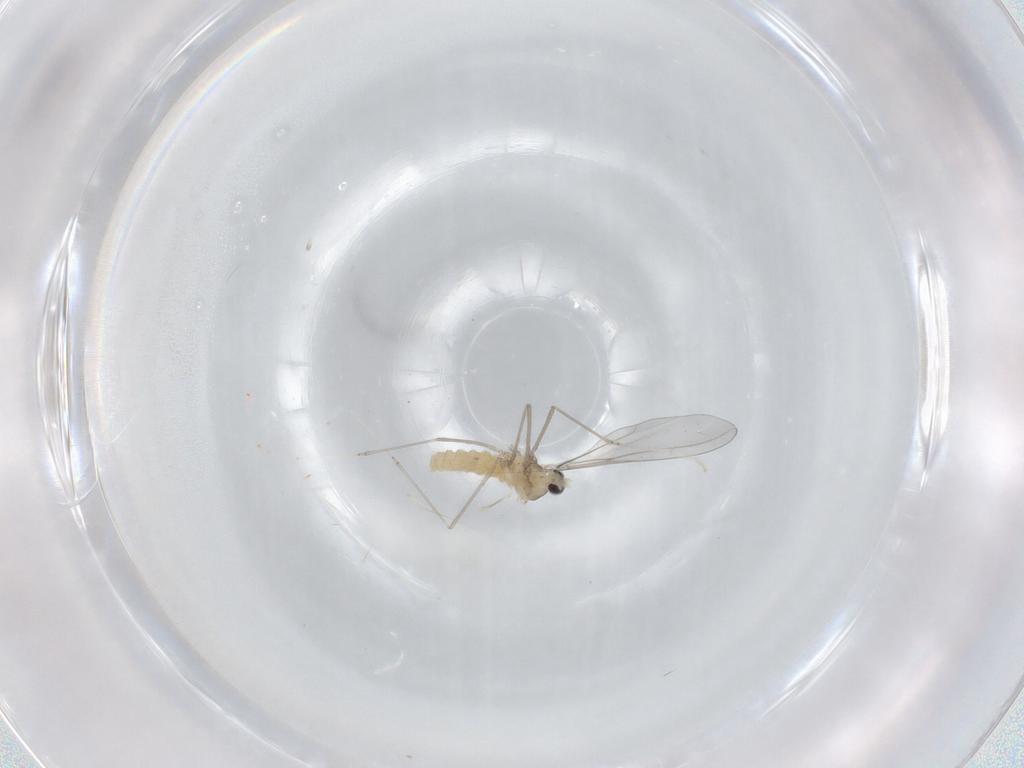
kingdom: Animalia
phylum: Arthropoda
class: Insecta
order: Diptera
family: Cecidomyiidae
